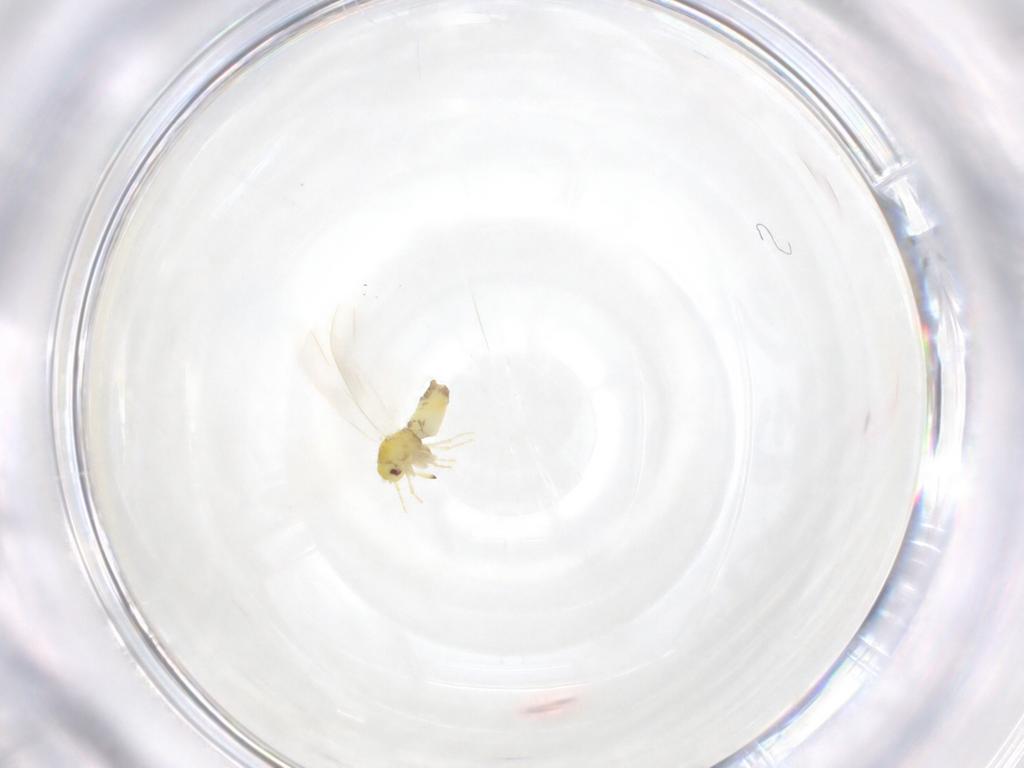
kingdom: Animalia
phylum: Arthropoda
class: Insecta
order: Hemiptera
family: Aleyrodidae
